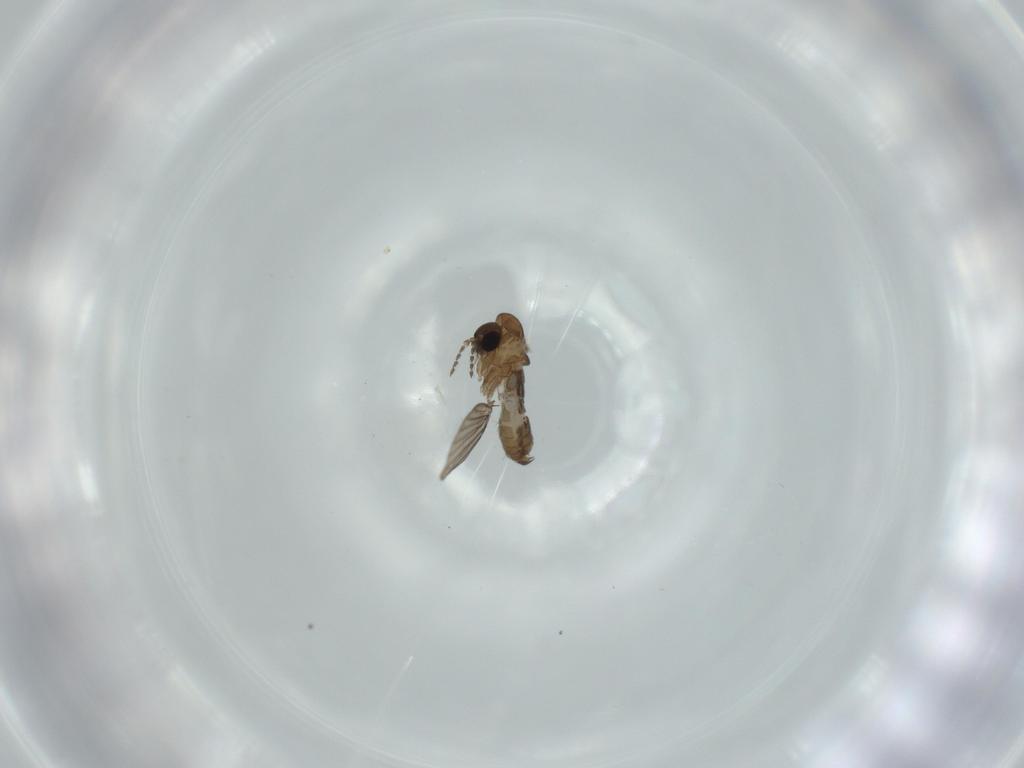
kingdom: Animalia
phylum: Arthropoda
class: Insecta
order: Diptera
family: Psychodidae
